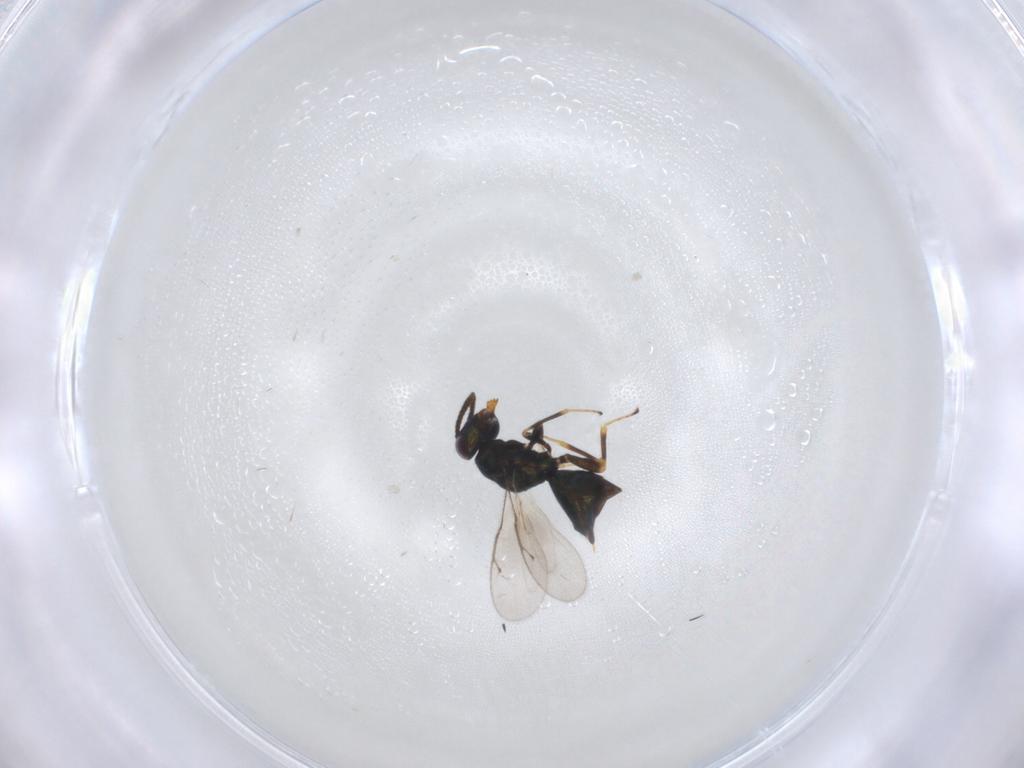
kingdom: Animalia
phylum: Arthropoda
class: Insecta
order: Hymenoptera
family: Pteromalidae
